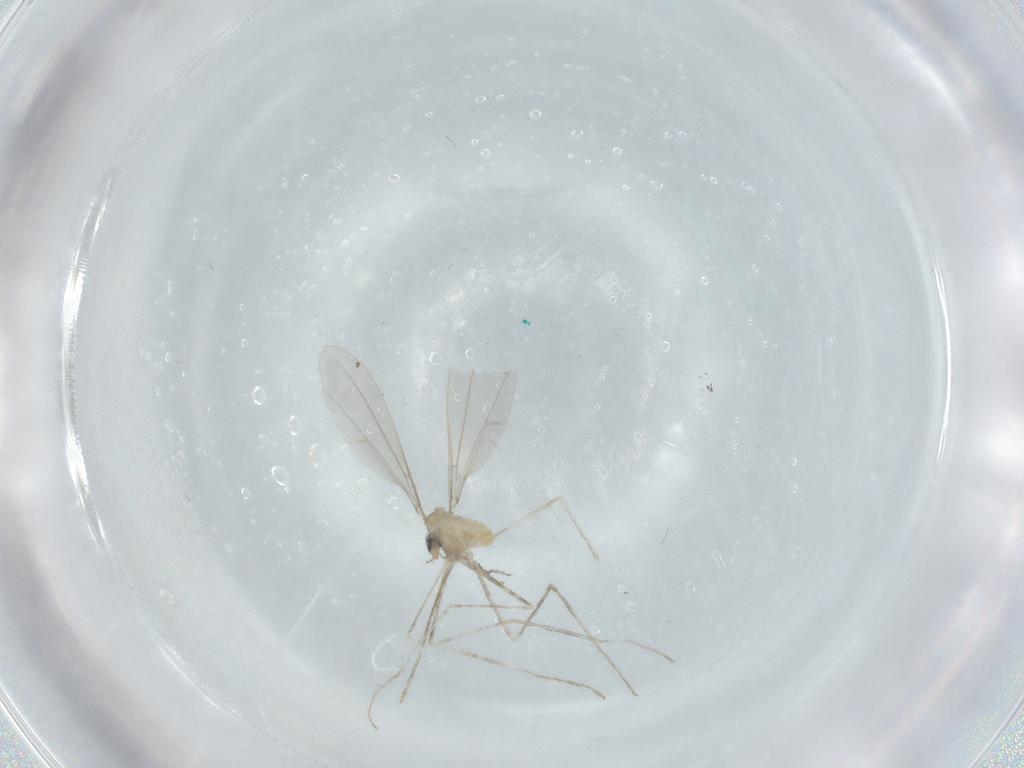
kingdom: Animalia
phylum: Arthropoda
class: Insecta
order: Diptera
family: Cecidomyiidae
